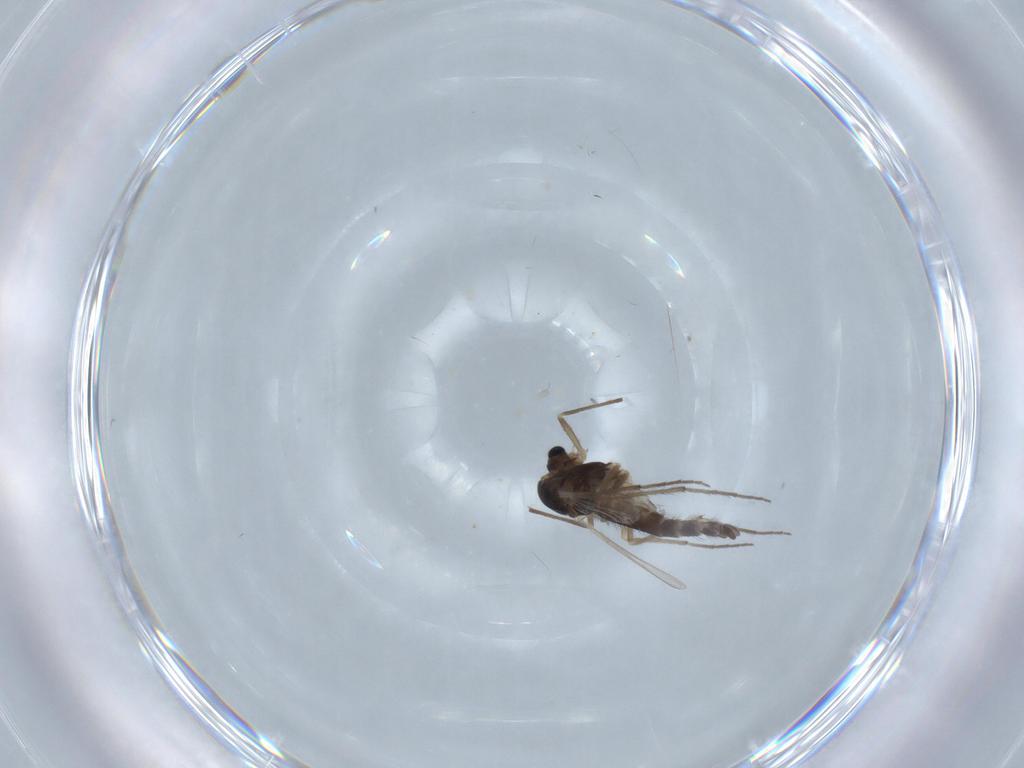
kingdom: Animalia
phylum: Arthropoda
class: Insecta
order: Diptera
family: Chironomidae
